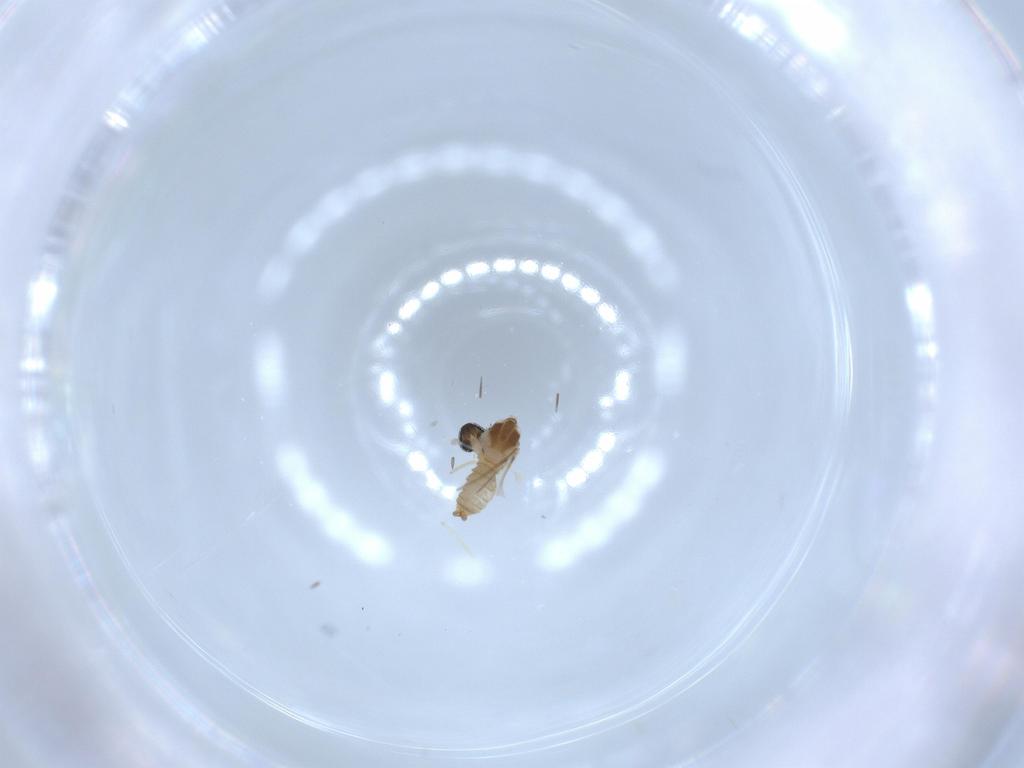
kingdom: Animalia
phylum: Arthropoda
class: Insecta
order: Diptera
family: Cecidomyiidae
